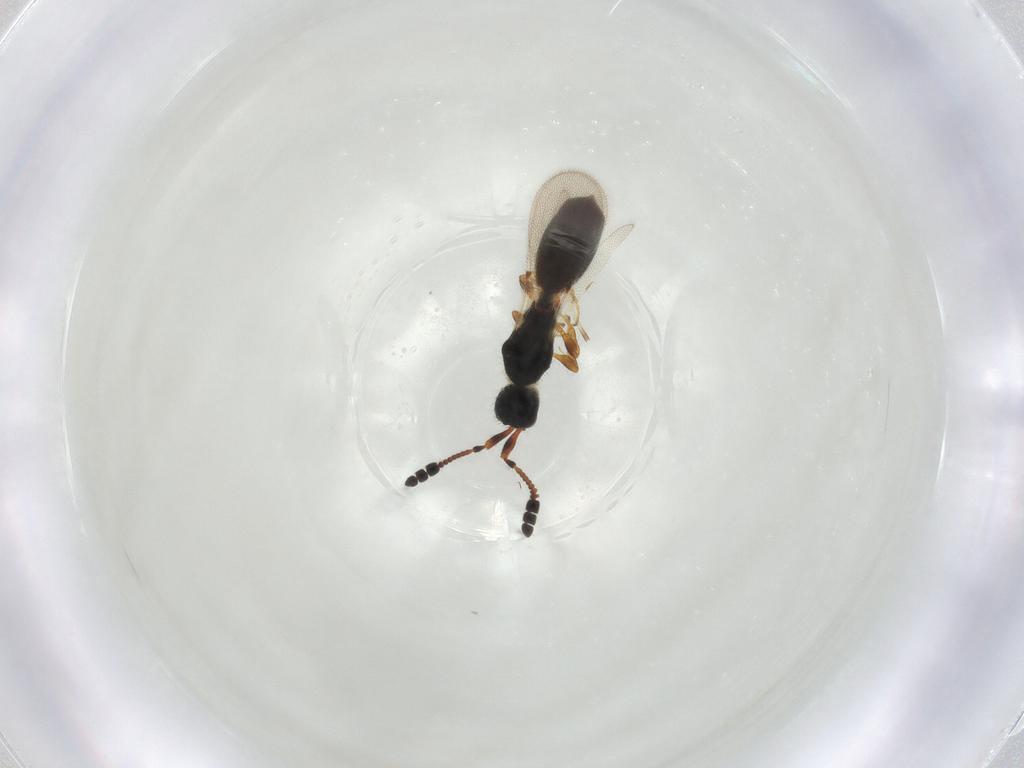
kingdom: Animalia
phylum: Arthropoda
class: Insecta
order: Hymenoptera
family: Diapriidae
